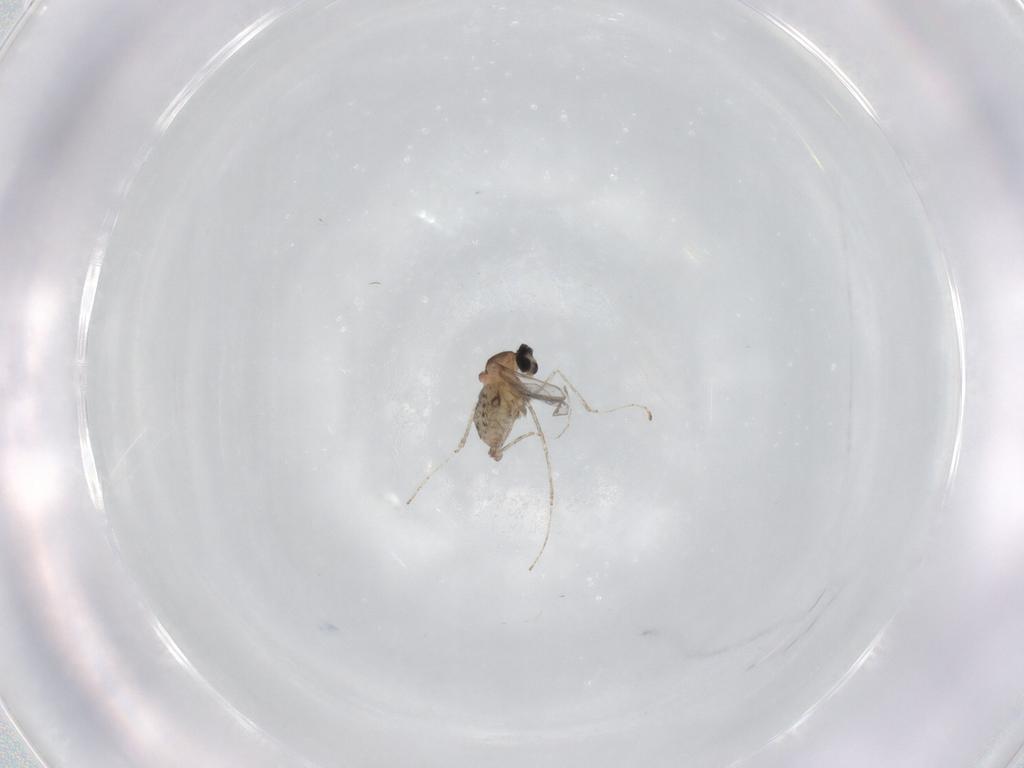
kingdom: Animalia
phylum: Arthropoda
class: Insecta
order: Diptera
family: Cecidomyiidae
